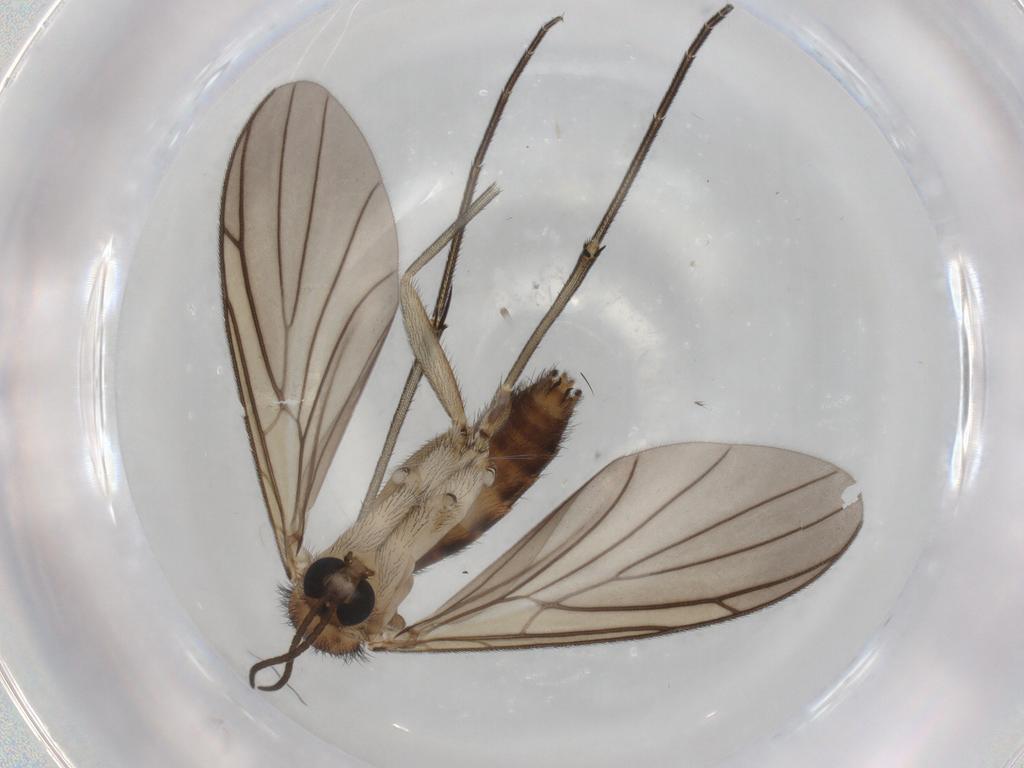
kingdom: Animalia
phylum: Arthropoda
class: Insecta
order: Diptera
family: Keroplatidae
